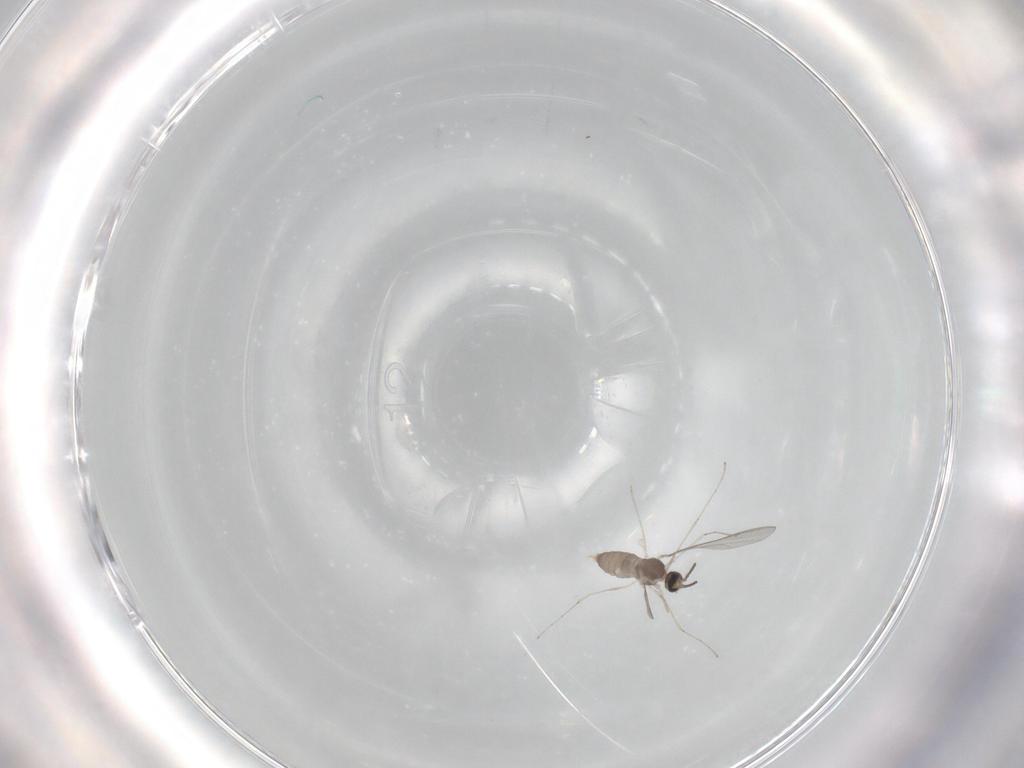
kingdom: Animalia
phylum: Arthropoda
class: Insecta
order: Diptera
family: Cecidomyiidae
